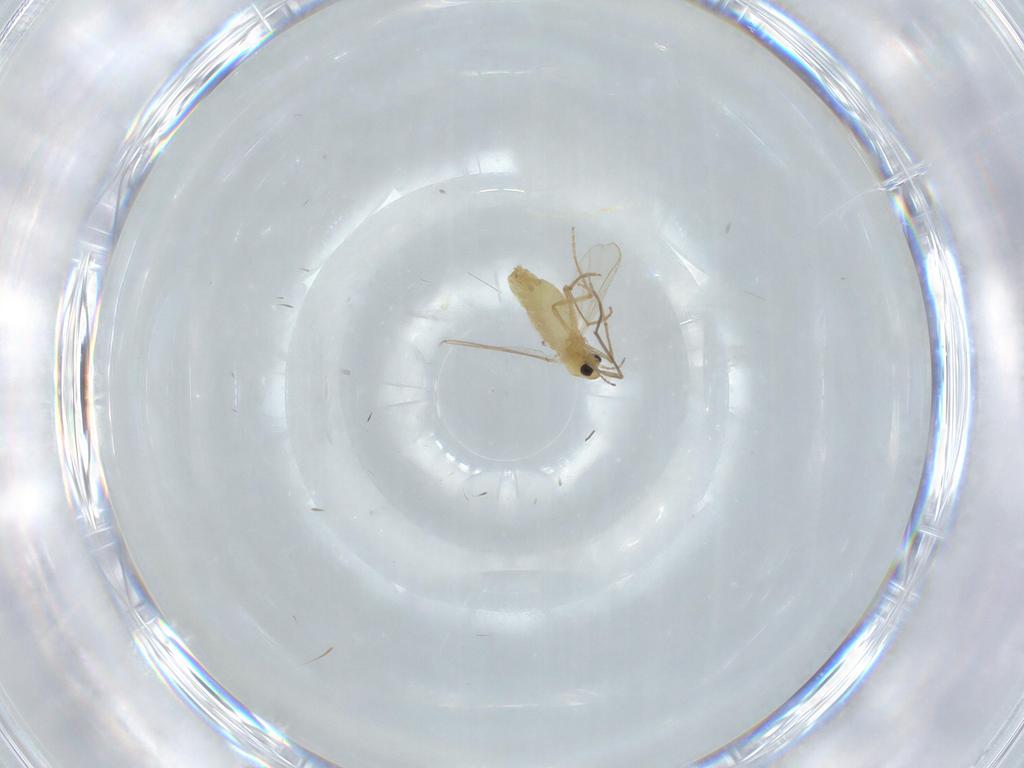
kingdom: Animalia
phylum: Arthropoda
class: Insecta
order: Diptera
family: Chironomidae
